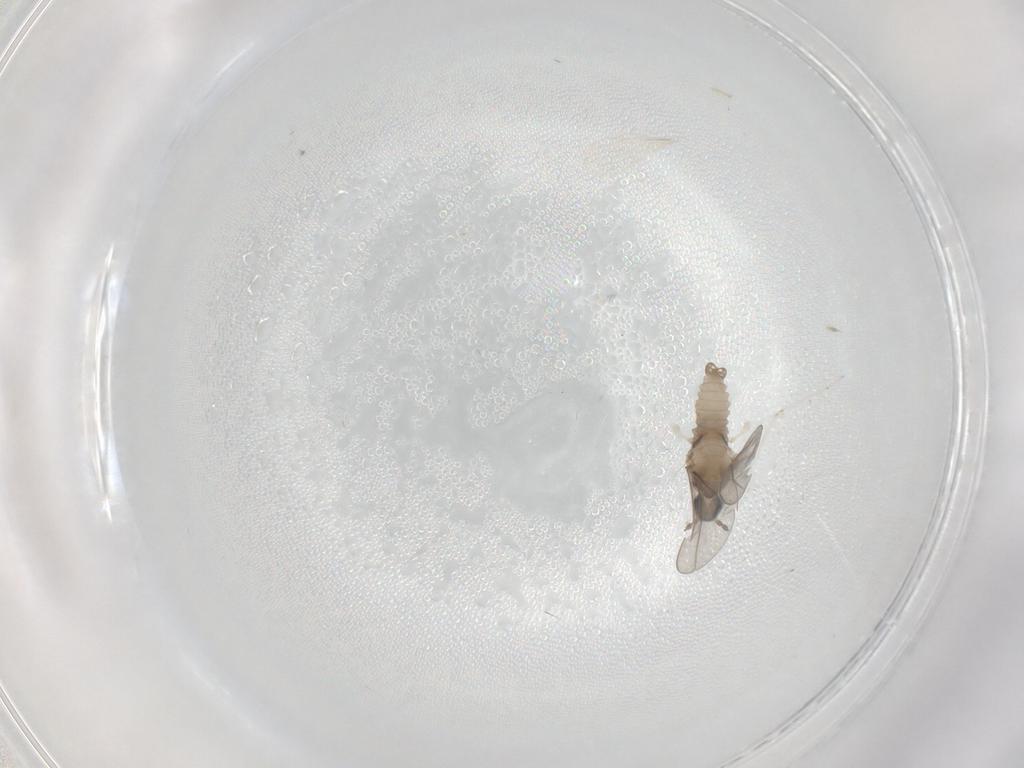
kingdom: Animalia
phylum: Arthropoda
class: Insecta
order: Diptera
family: Cecidomyiidae
